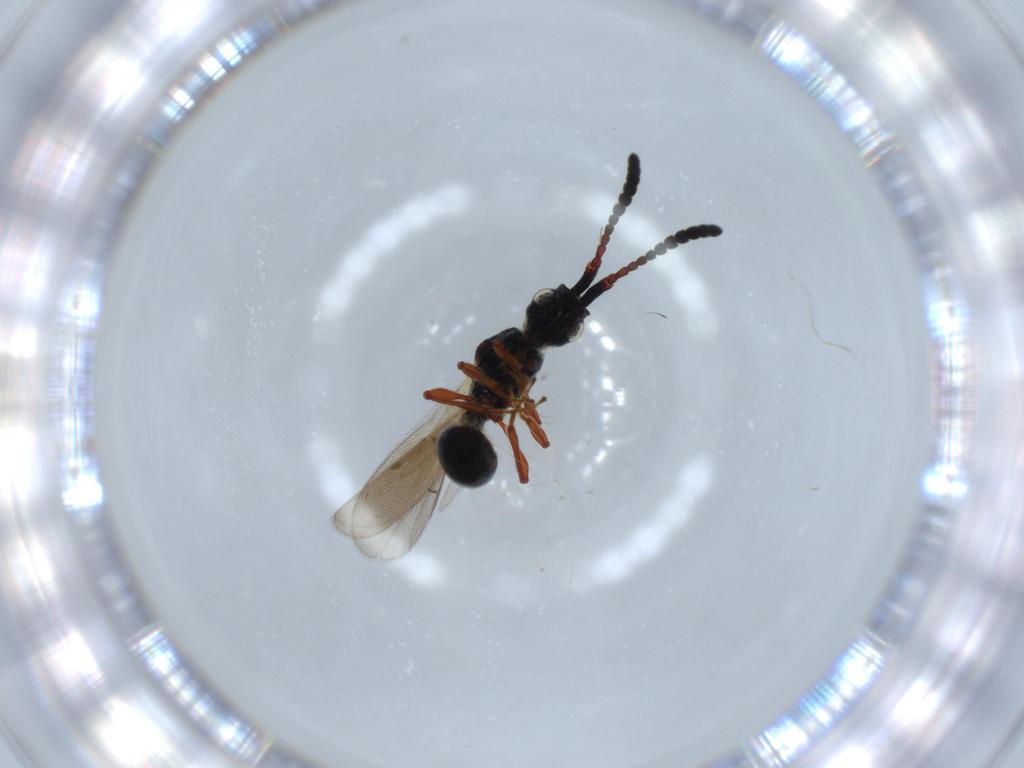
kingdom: Animalia
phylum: Arthropoda
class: Insecta
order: Hymenoptera
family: Diapriidae
